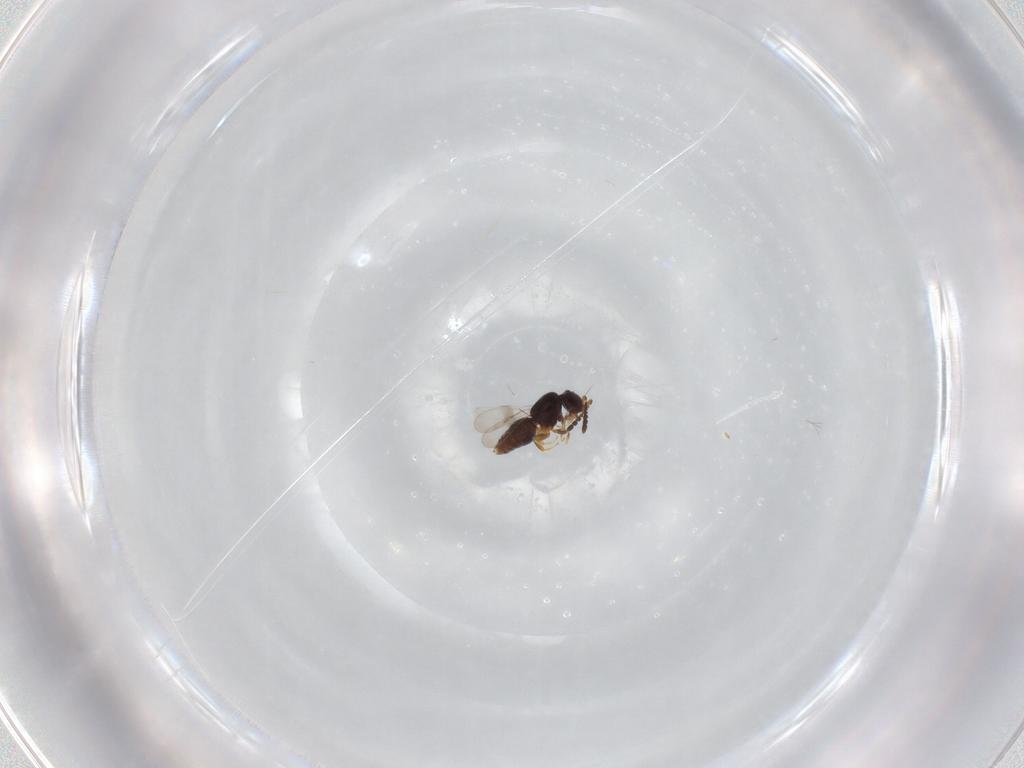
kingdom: Animalia
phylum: Arthropoda
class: Insecta
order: Hymenoptera
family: Ceraphronidae
